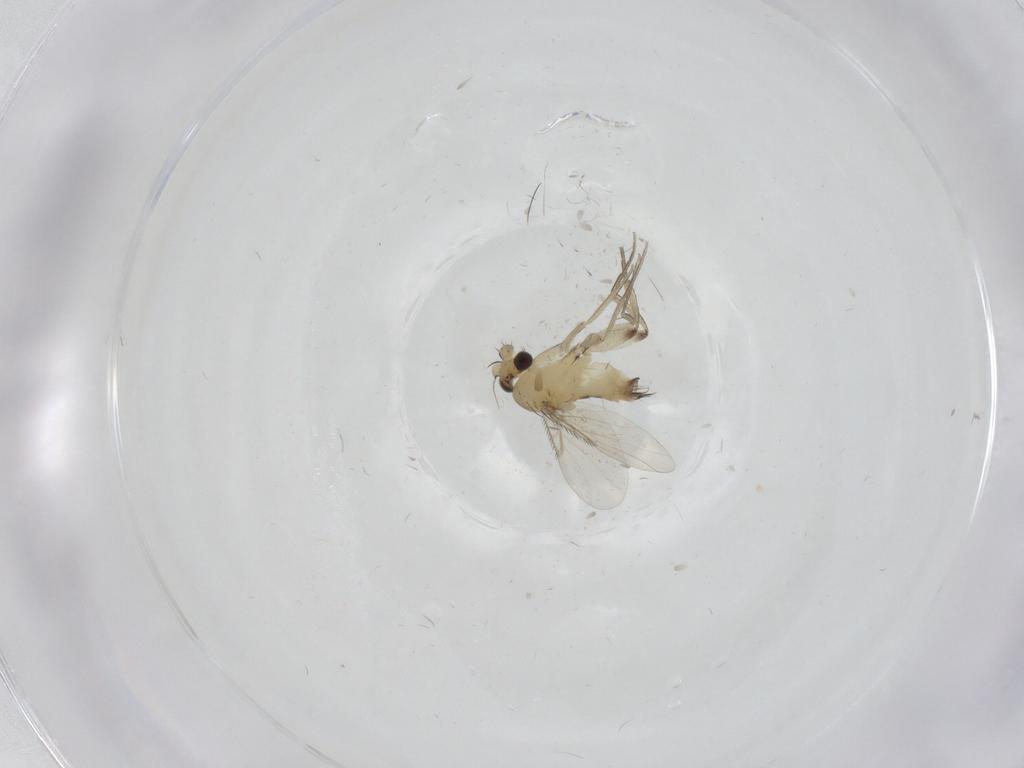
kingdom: Animalia
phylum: Arthropoda
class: Insecta
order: Diptera
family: Phoridae
